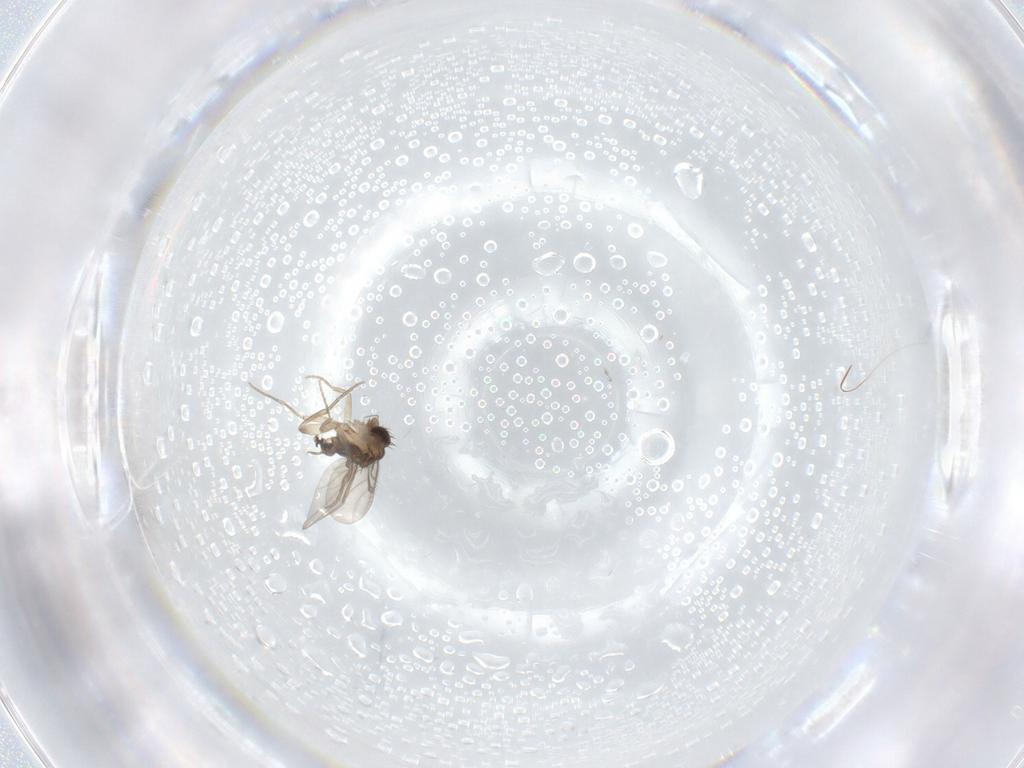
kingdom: Animalia
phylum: Arthropoda
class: Insecta
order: Diptera
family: Phoridae
